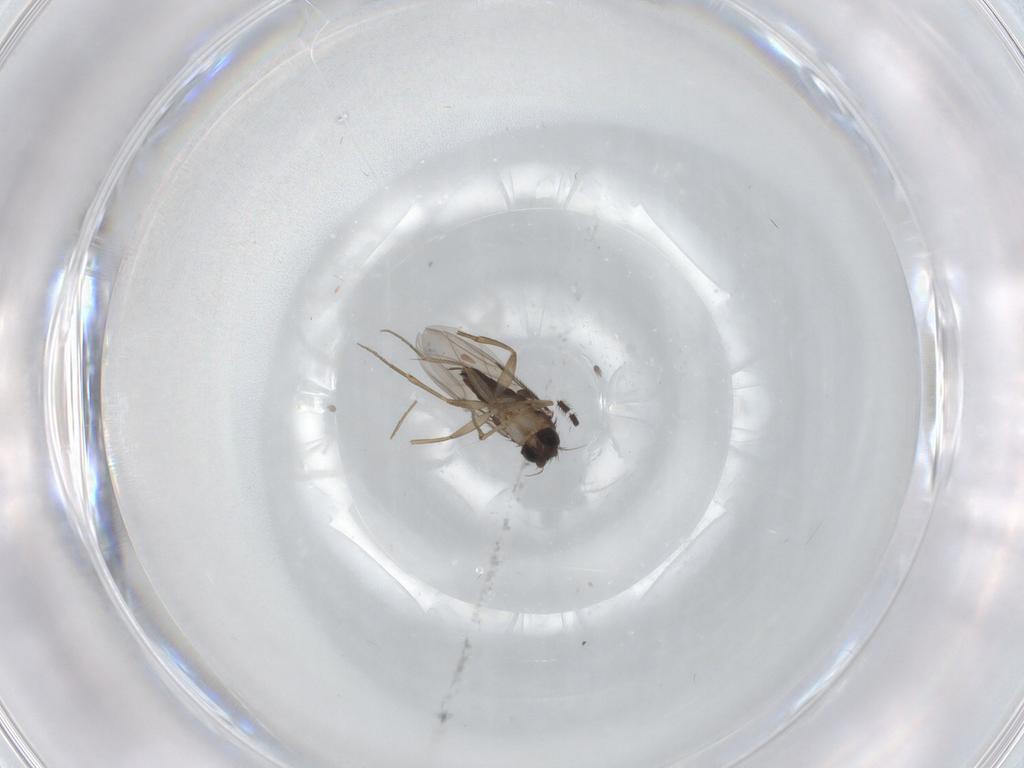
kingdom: Animalia
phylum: Arthropoda
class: Insecta
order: Diptera
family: Phoridae
